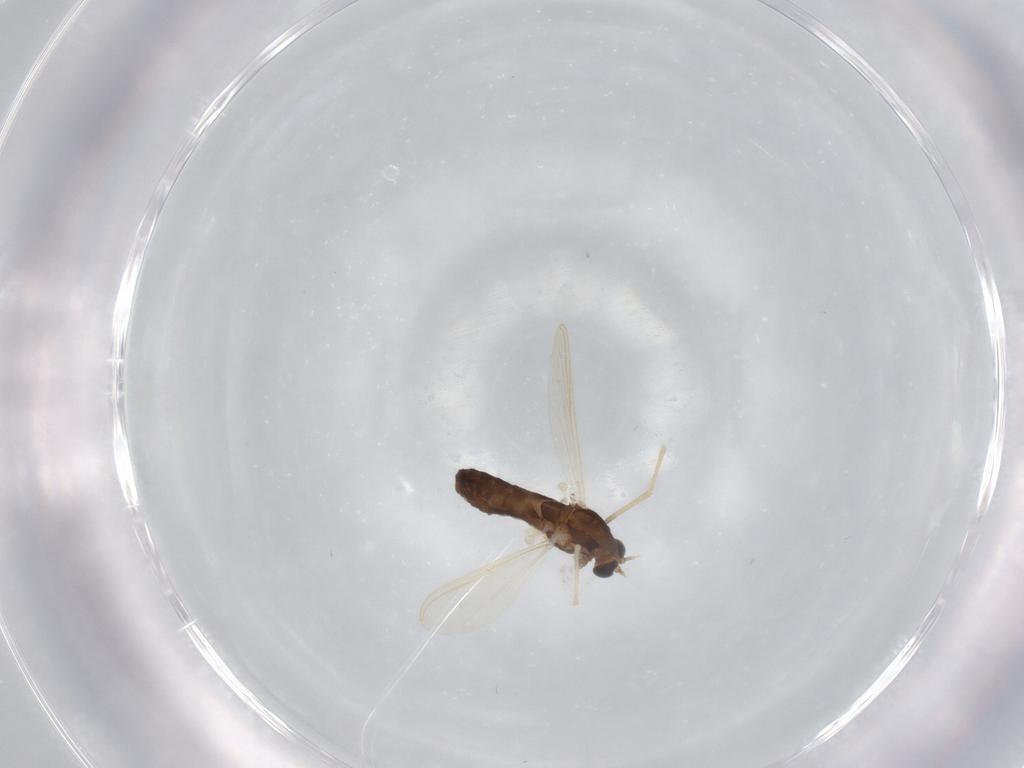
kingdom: Animalia
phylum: Arthropoda
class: Insecta
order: Diptera
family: Chironomidae
